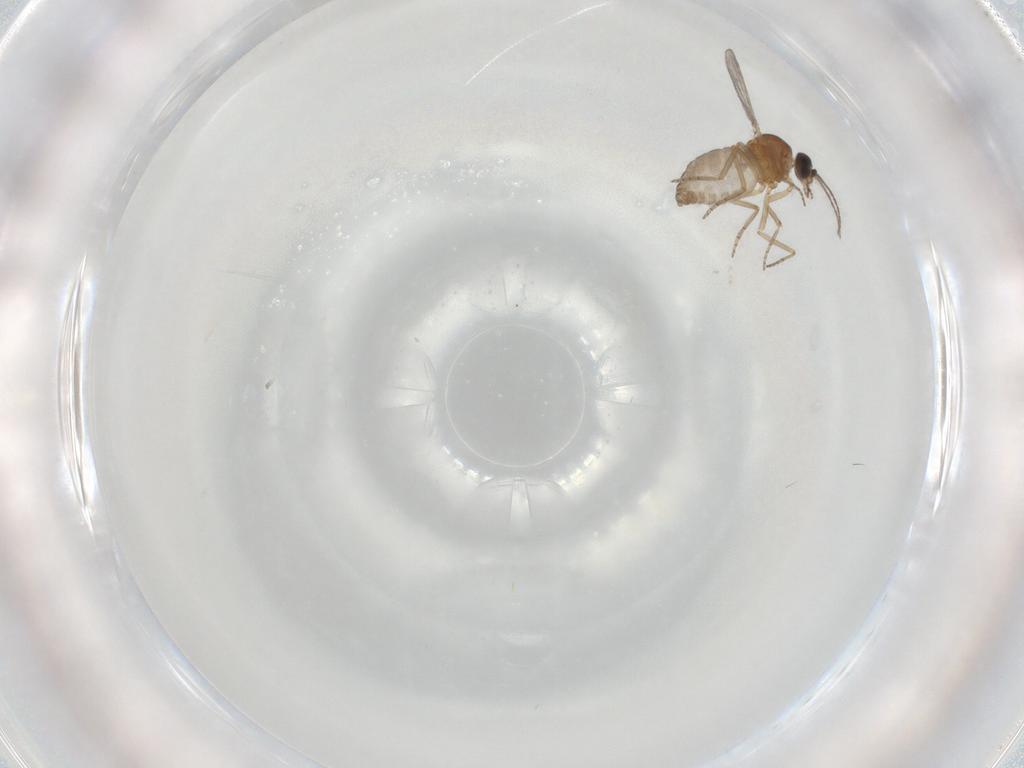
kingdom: Animalia
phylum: Arthropoda
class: Insecta
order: Diptera
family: Ceratopogonidae
